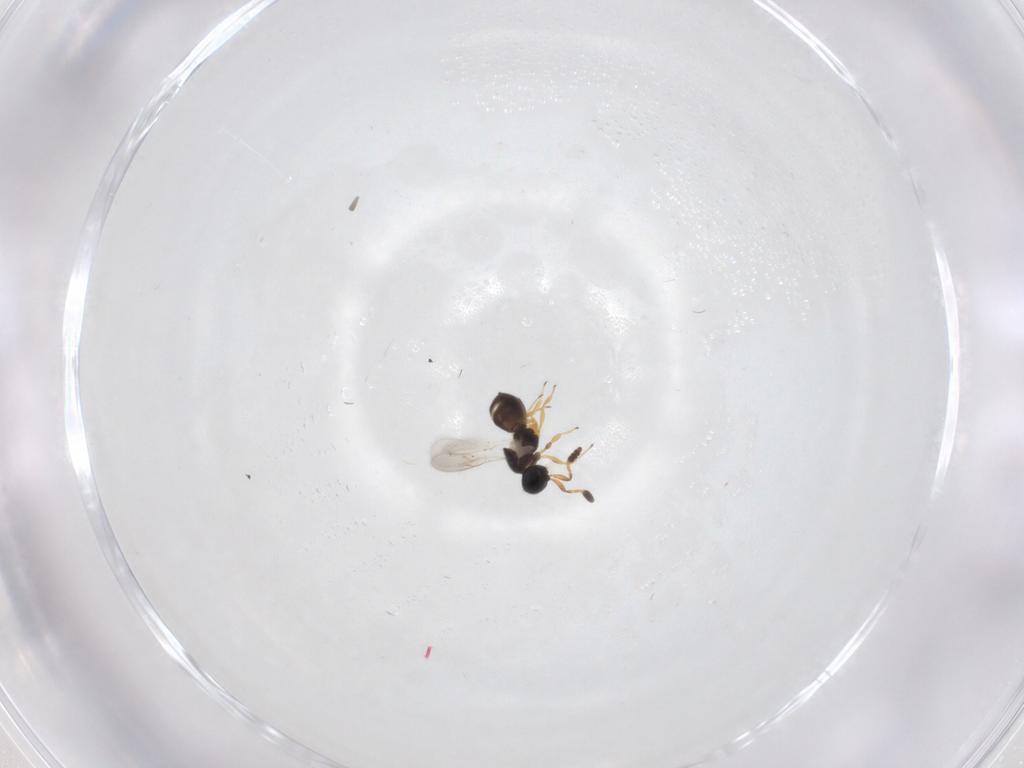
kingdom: Animalia
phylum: Arthropoda
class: Insecta
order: Hymenoptera
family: Scelionidae
